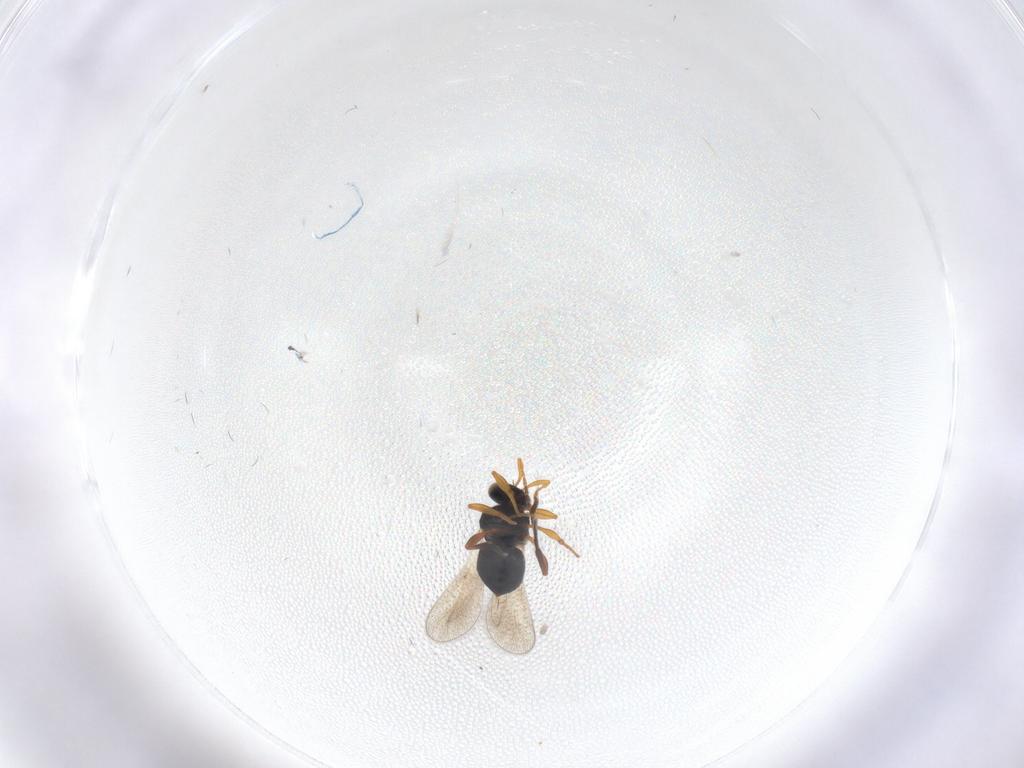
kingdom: Animalia
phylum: Arthropoda
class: Insecta
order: Hymenoptera
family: Platygastridae
